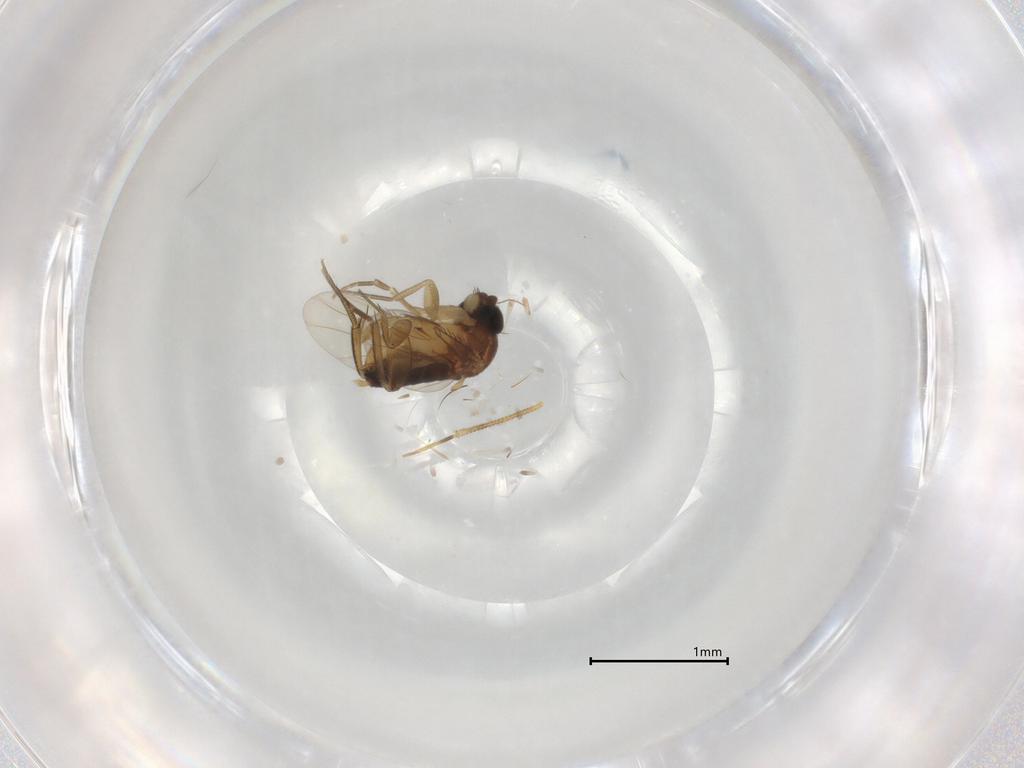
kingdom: Animalia
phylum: Arthropoda
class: Insecta
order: Diptera
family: Phoridae
